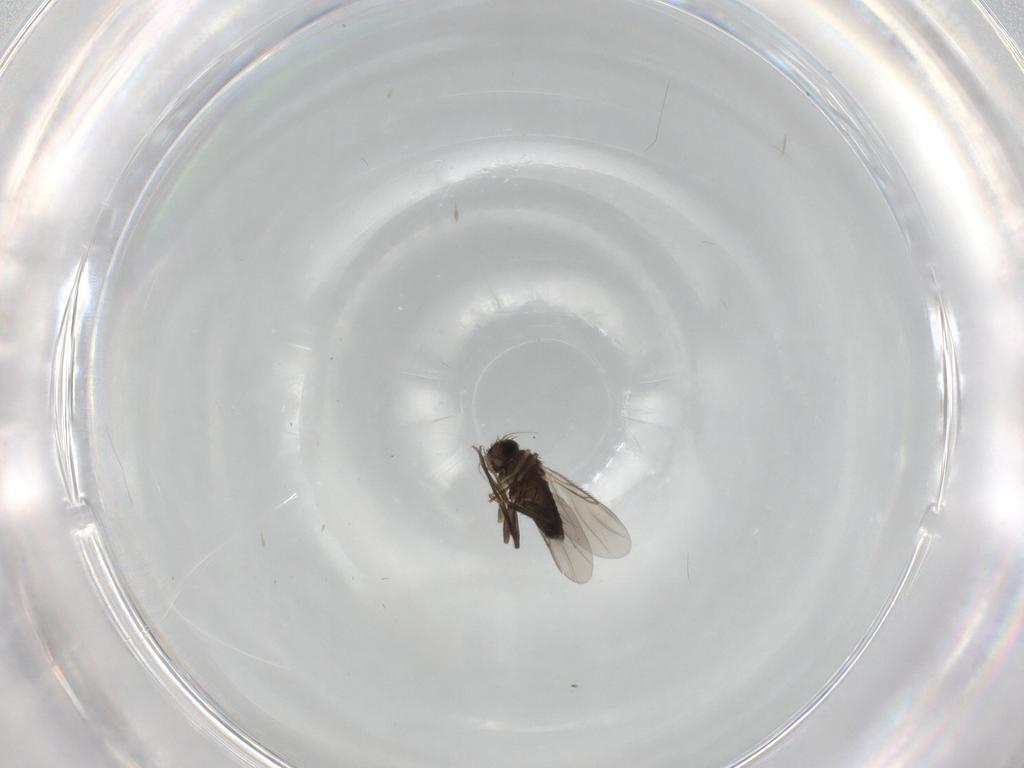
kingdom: Animalia
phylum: Arthropoda
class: Insecta
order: Diptera
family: Phoridae
